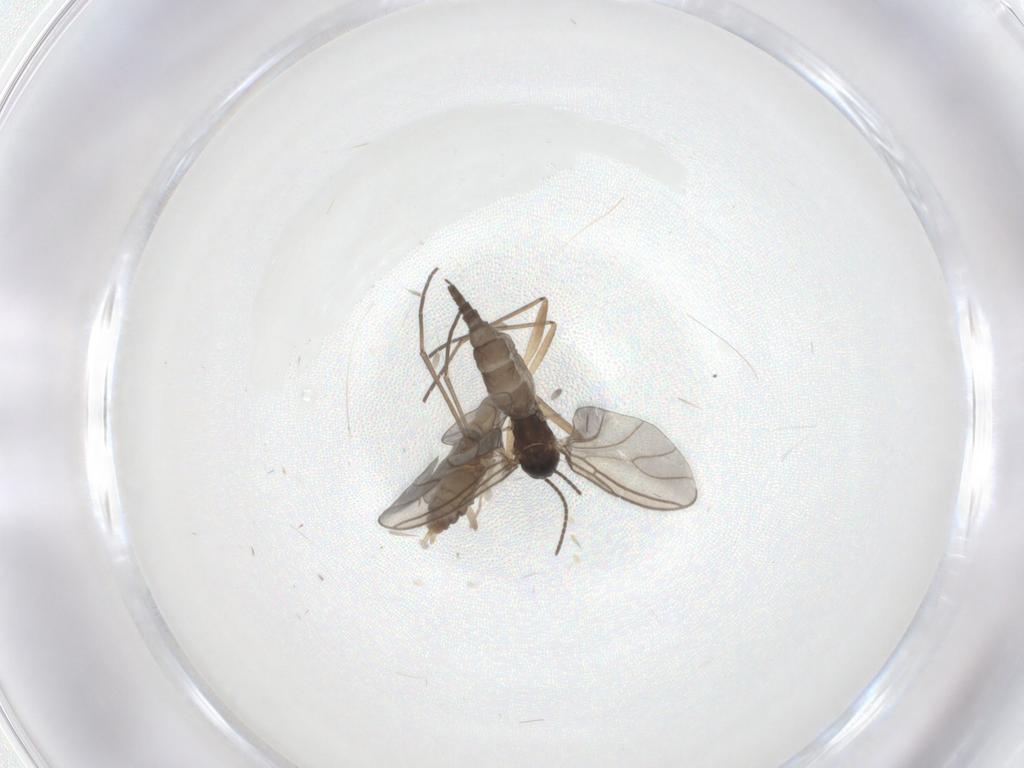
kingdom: Animalia
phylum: Arthropoda
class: Insecta
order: Diptera
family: Sciaridae
